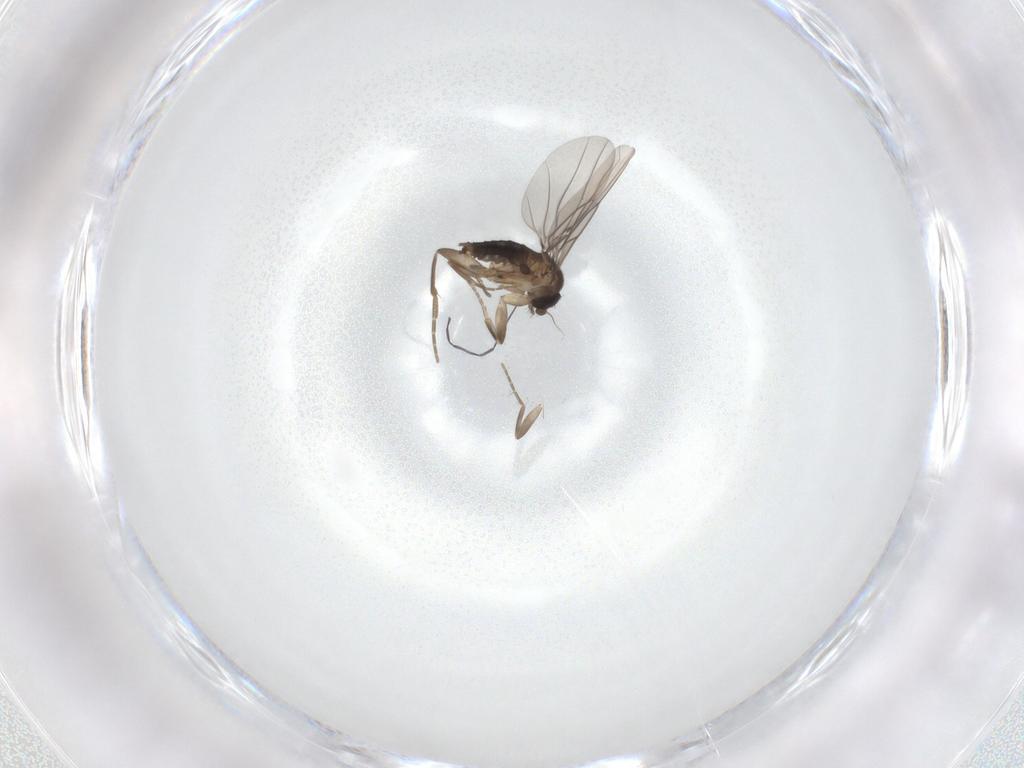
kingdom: Animalia
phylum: Arthropoda
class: Insecta
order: Diptera
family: Phoridae
